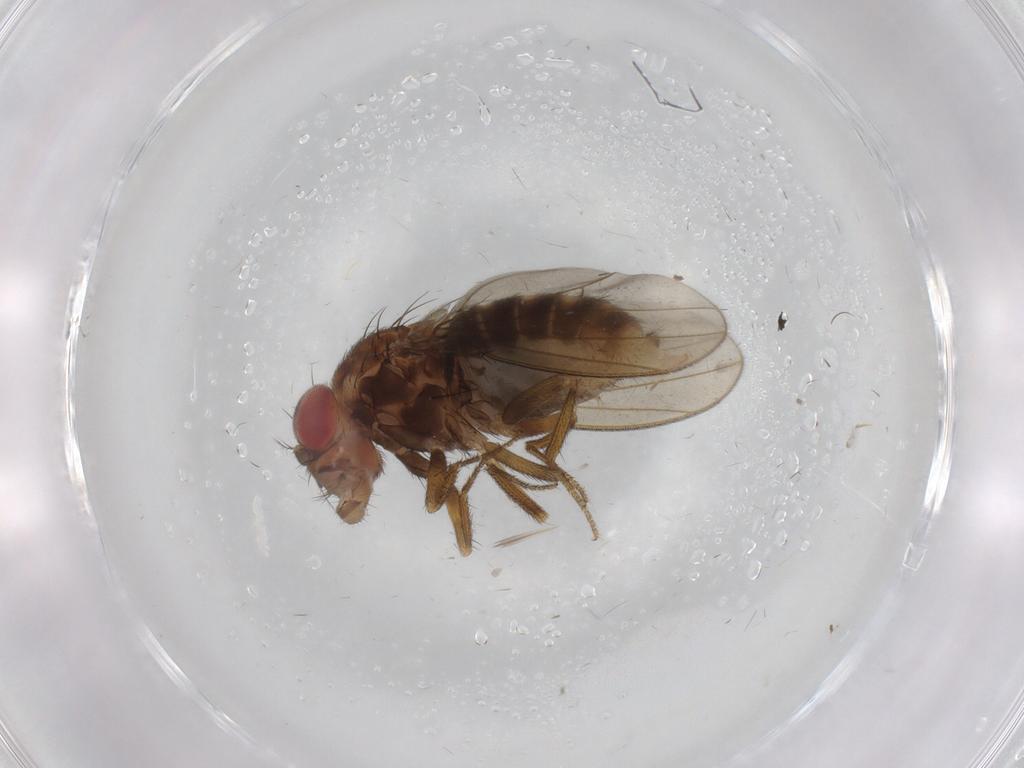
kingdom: Animalia
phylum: Arthropoda
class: Insecta
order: Diptera
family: Psychodidae
